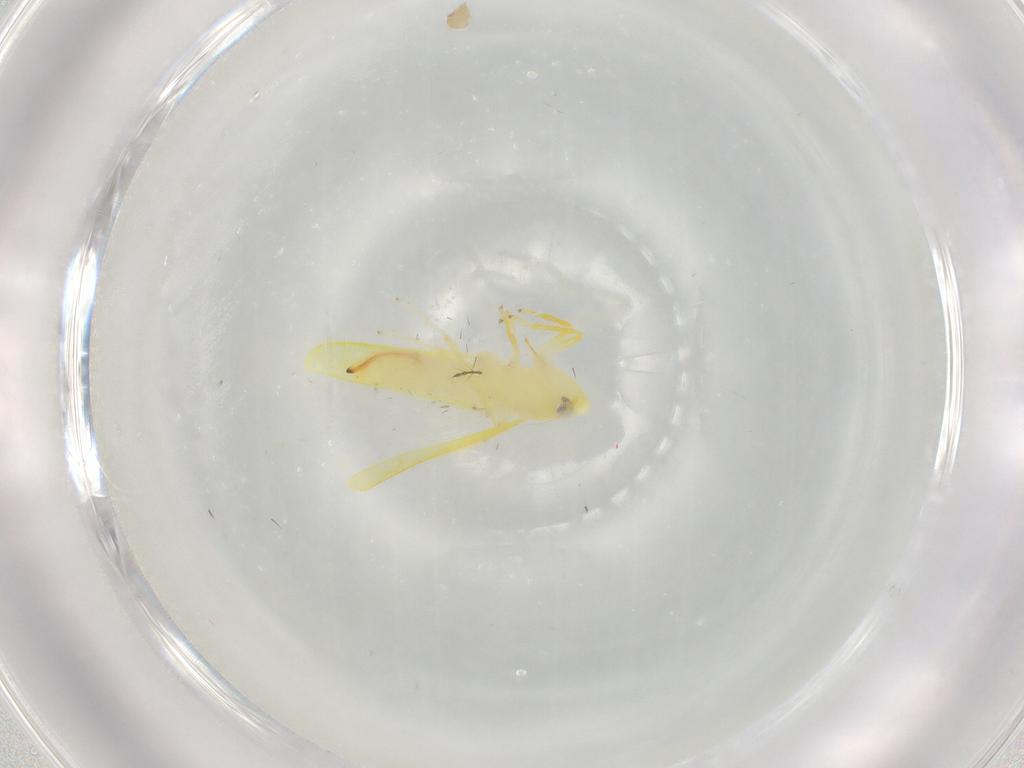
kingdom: Animalia
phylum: Arthropoda
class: Insecta
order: Hemiptera
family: Cicadellidae
